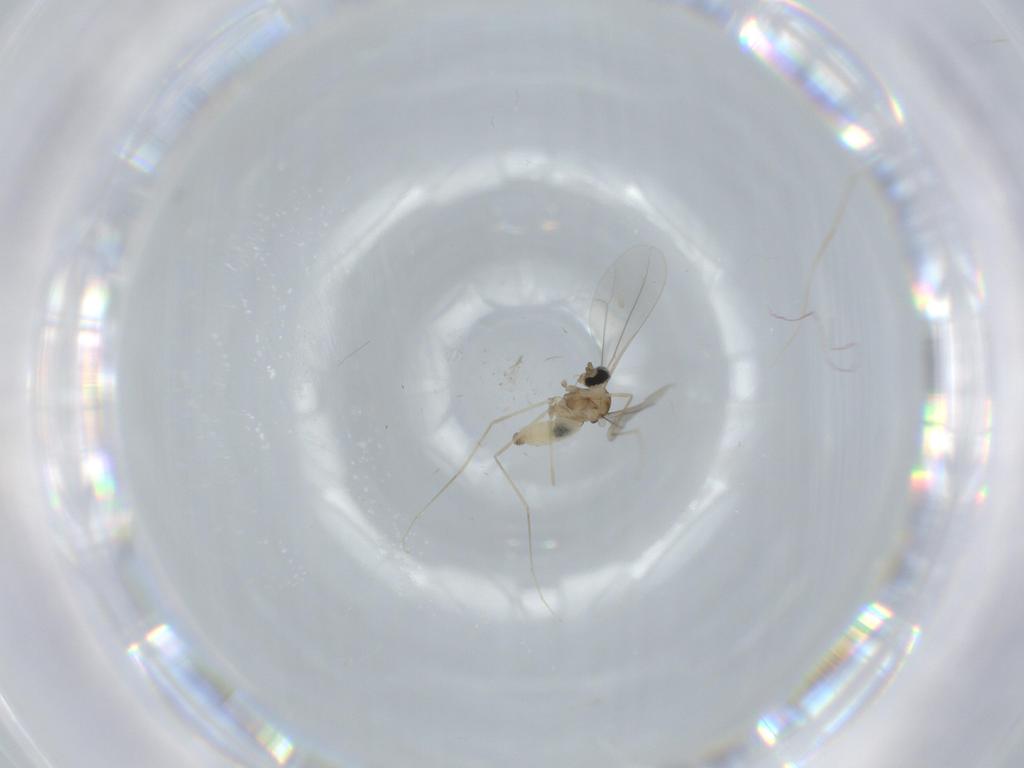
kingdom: Animalia
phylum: Arthropoda
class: Insecta
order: Diptera
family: Cecidomyiidae
